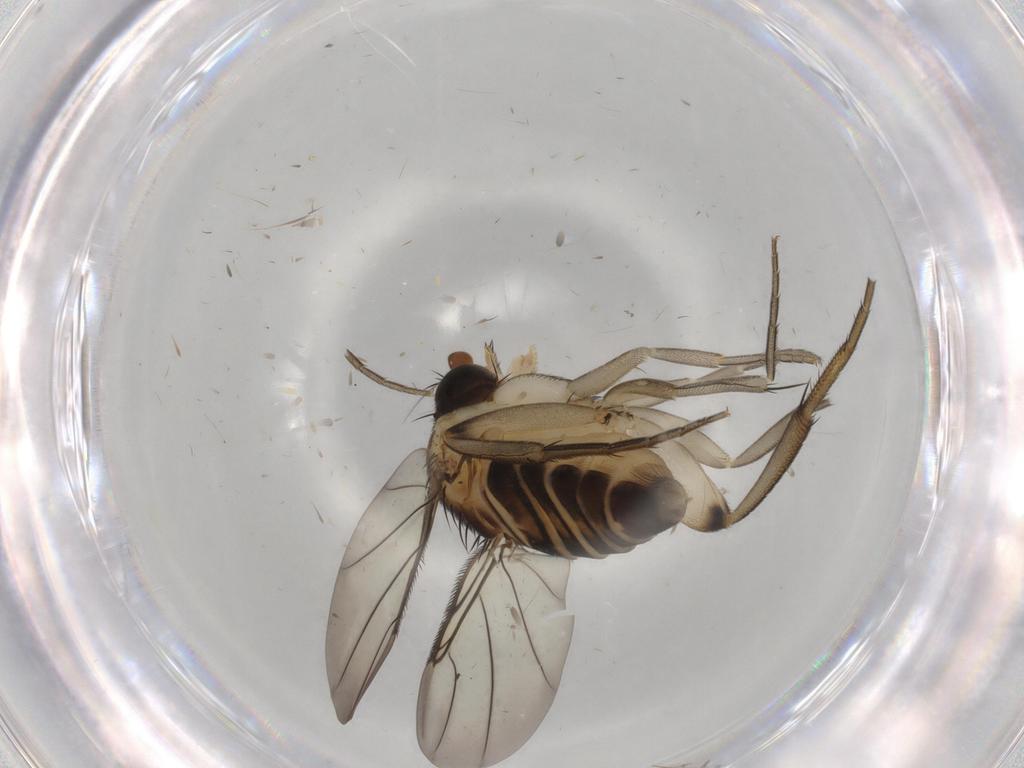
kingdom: Animalia
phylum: Arthropoda
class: Insecta
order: Diptera
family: Phoridae
